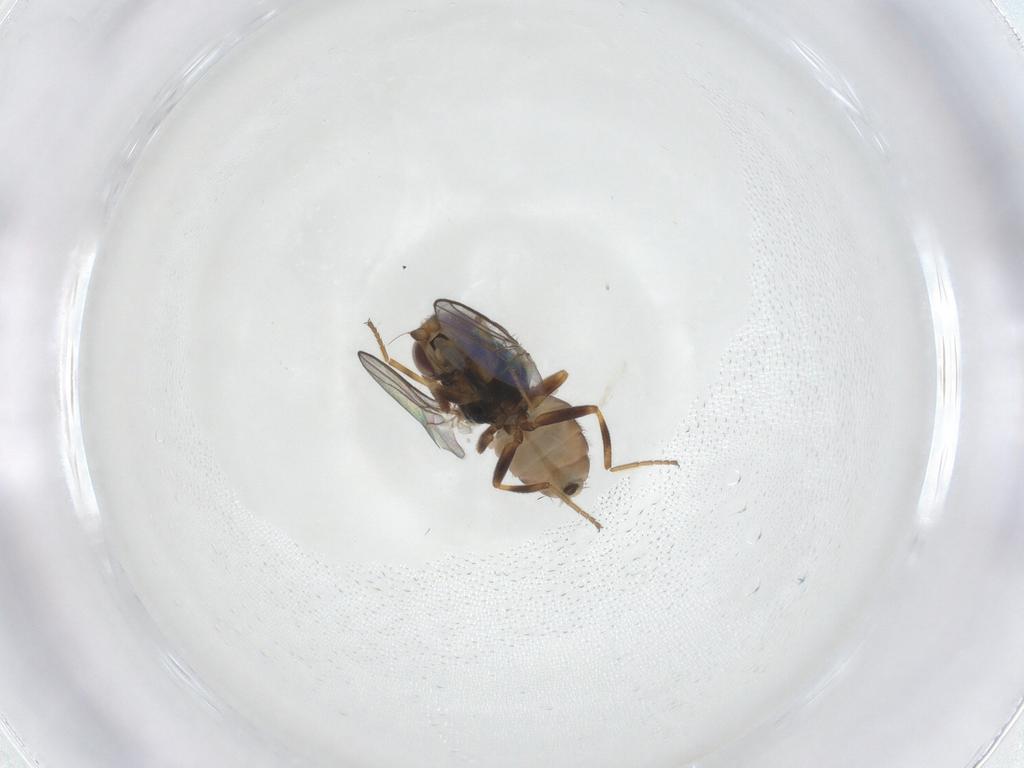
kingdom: Animalia
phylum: Arthropoda
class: Insecta
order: Diptera
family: Chloropidae
